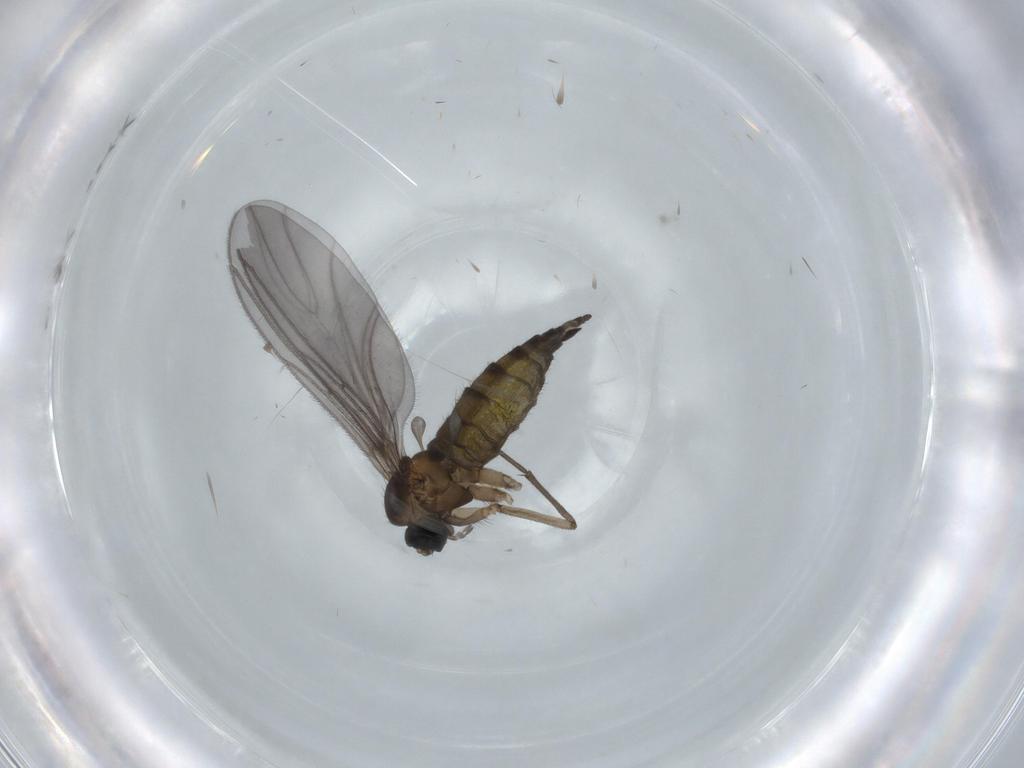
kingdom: Animalia
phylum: Arthropoda
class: Insecta
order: Diptera
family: Sciaridae
